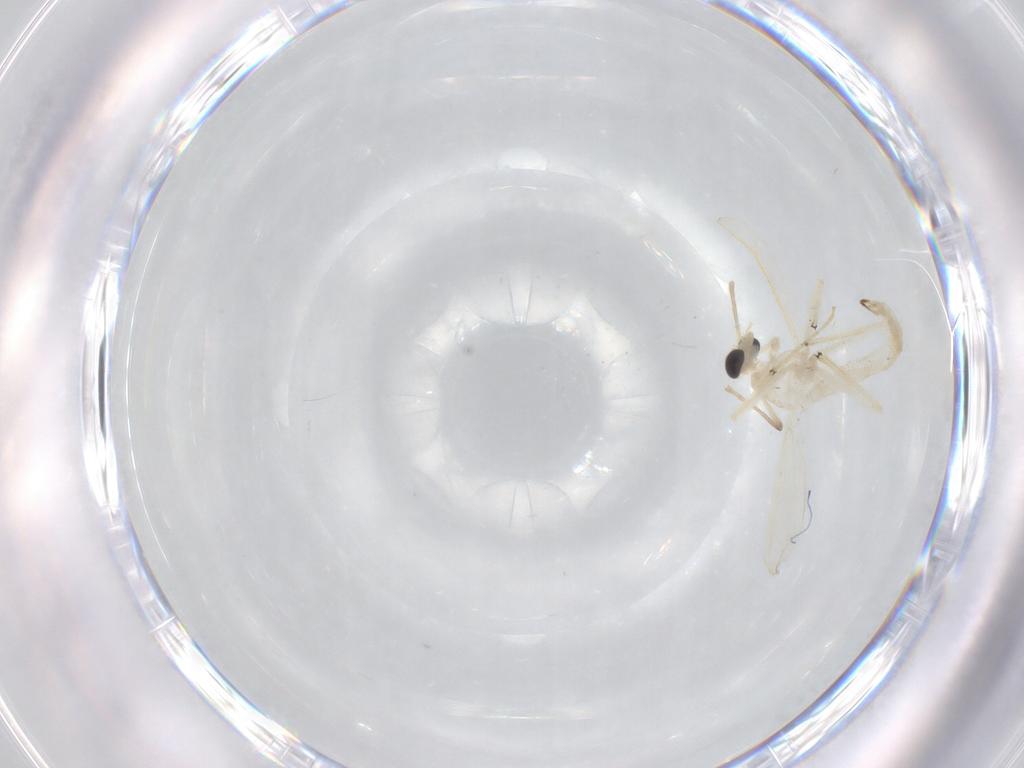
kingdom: Animalia
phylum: Arthropoda
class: Insecta
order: Diptera
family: Chironomidae
